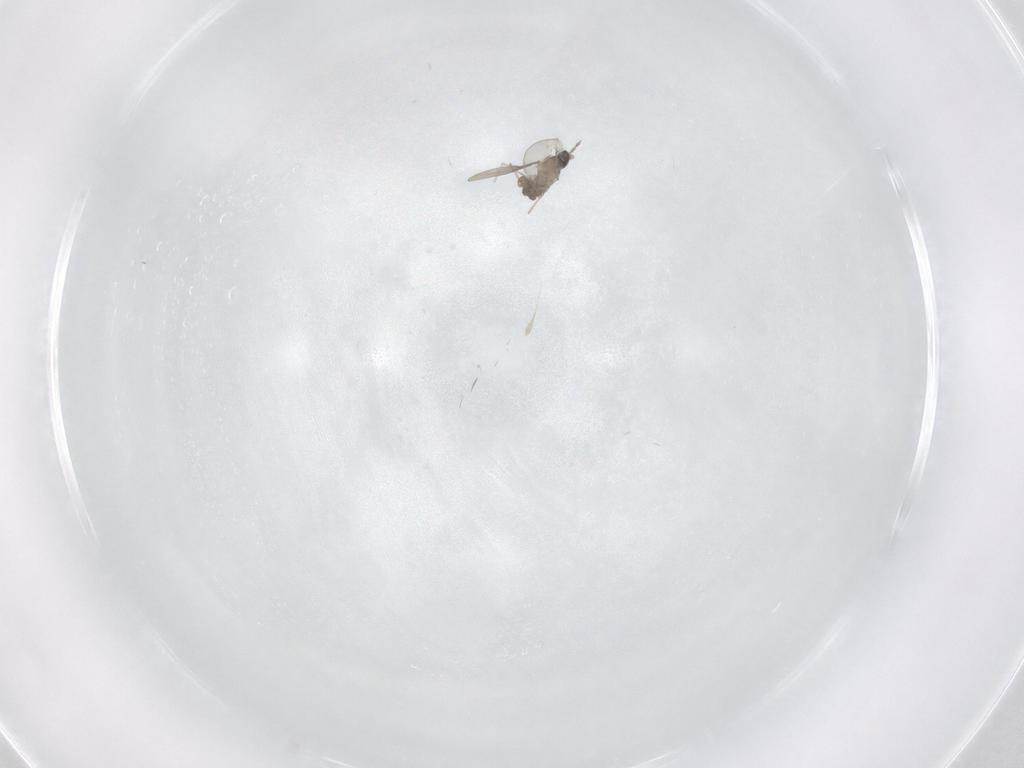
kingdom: Animalia
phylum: Arthropoda
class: Insecta
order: Diptera
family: Cecidomyiidae
